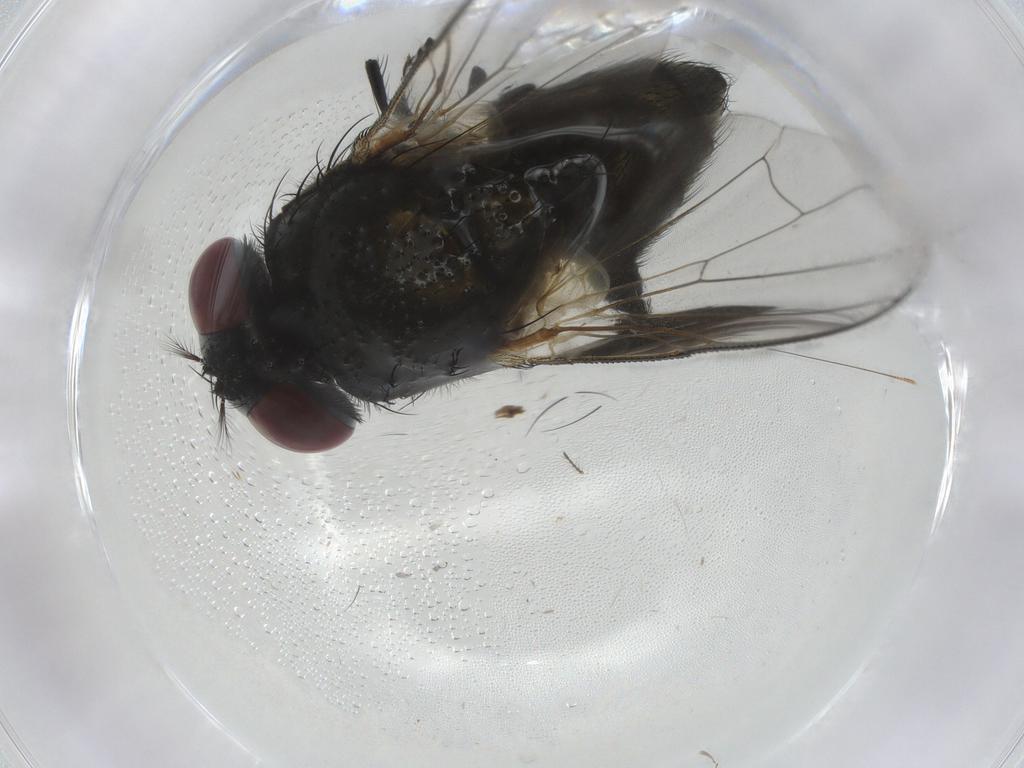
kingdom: Animalia
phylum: Arthropoda
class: Insecta
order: Diptera
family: Muscidae
